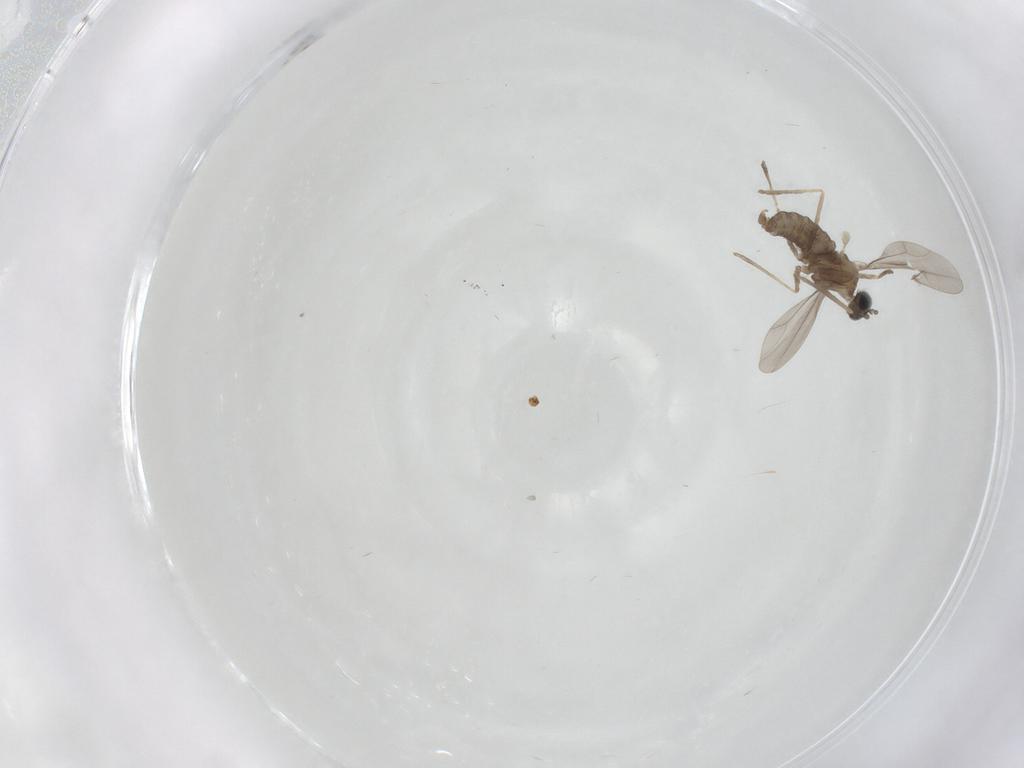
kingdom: Animalia
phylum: Arthropoda
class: Insecta
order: Diptera
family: Cecidomyiidae
